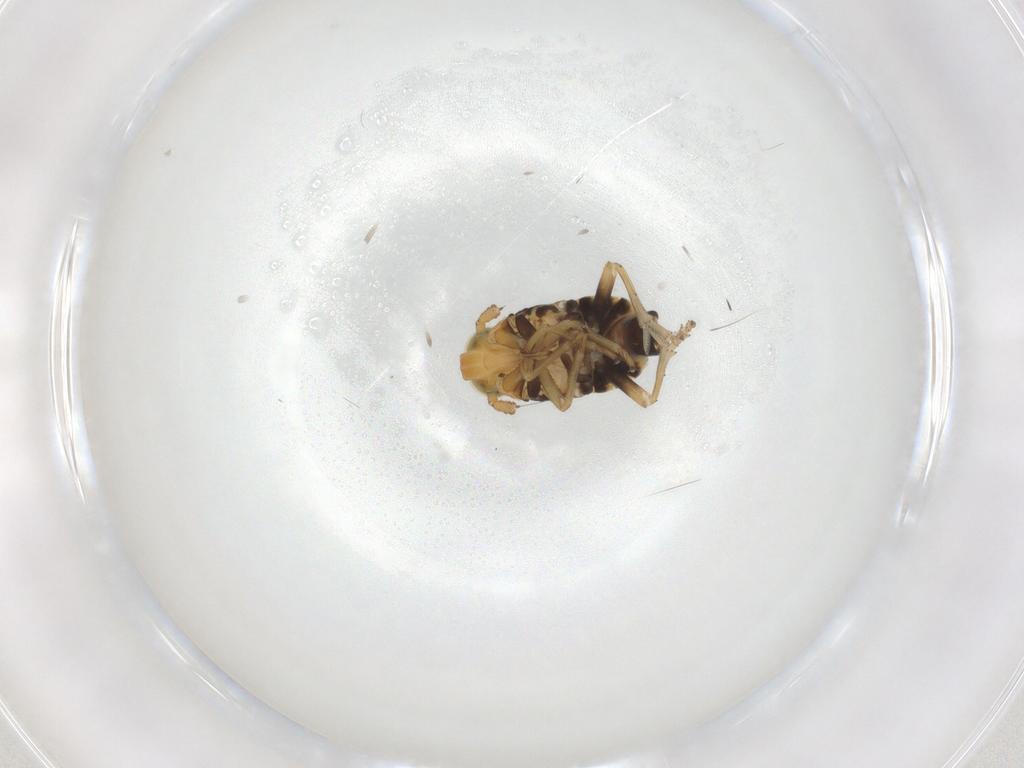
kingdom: Animalia
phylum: Arthropoda
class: Insecta
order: Hemiptera
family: Delphacidae
